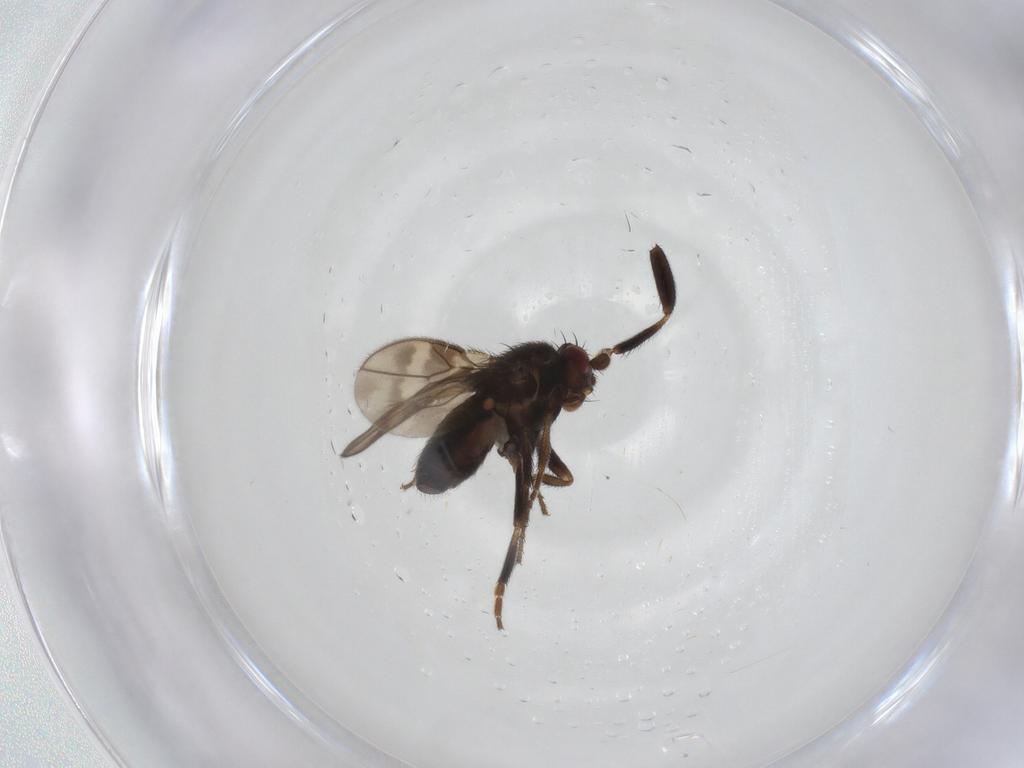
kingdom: Animalia
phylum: Arthropoda
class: Insecta
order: Diptera
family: Sphaeroceridae
